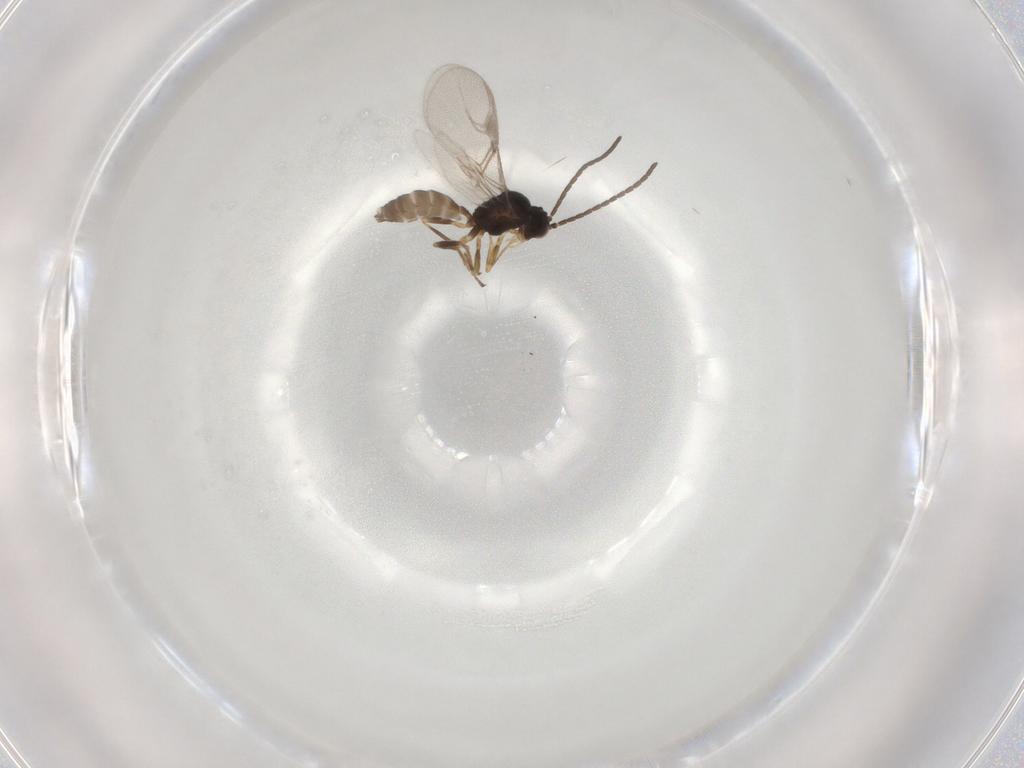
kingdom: Animalia
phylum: Arthropoda
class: Insecta
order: Hymenoptera
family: Braconidae
